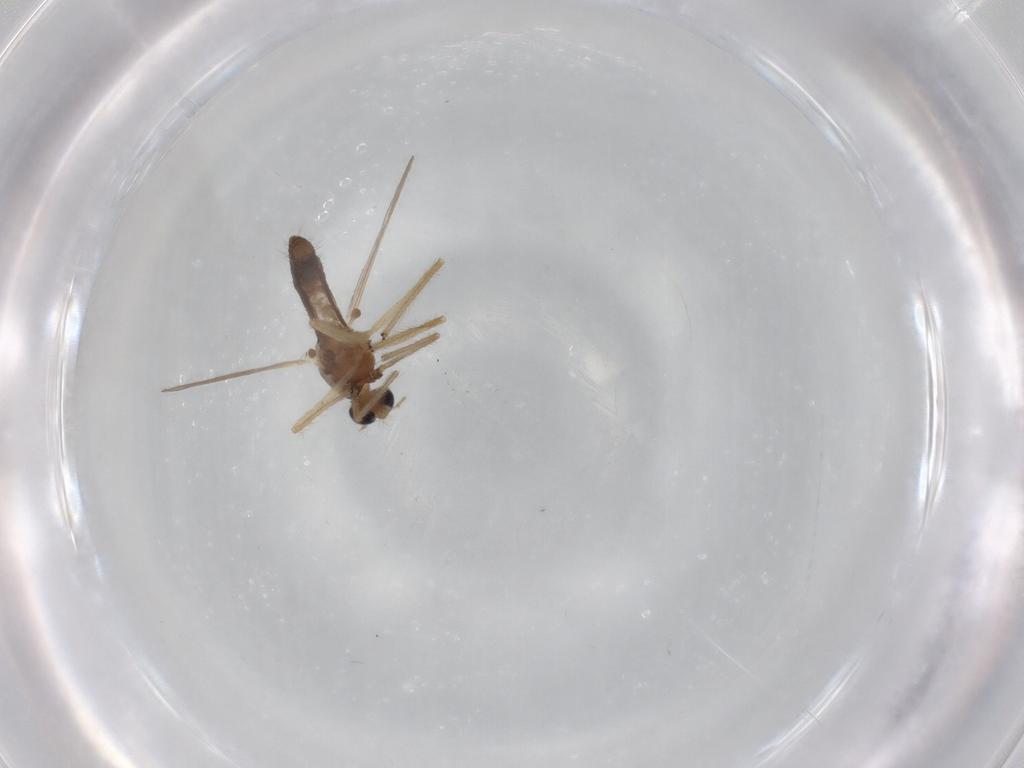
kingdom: Animalia
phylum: Arthropoda
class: Insecta
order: Diptera
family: Chironomidae
